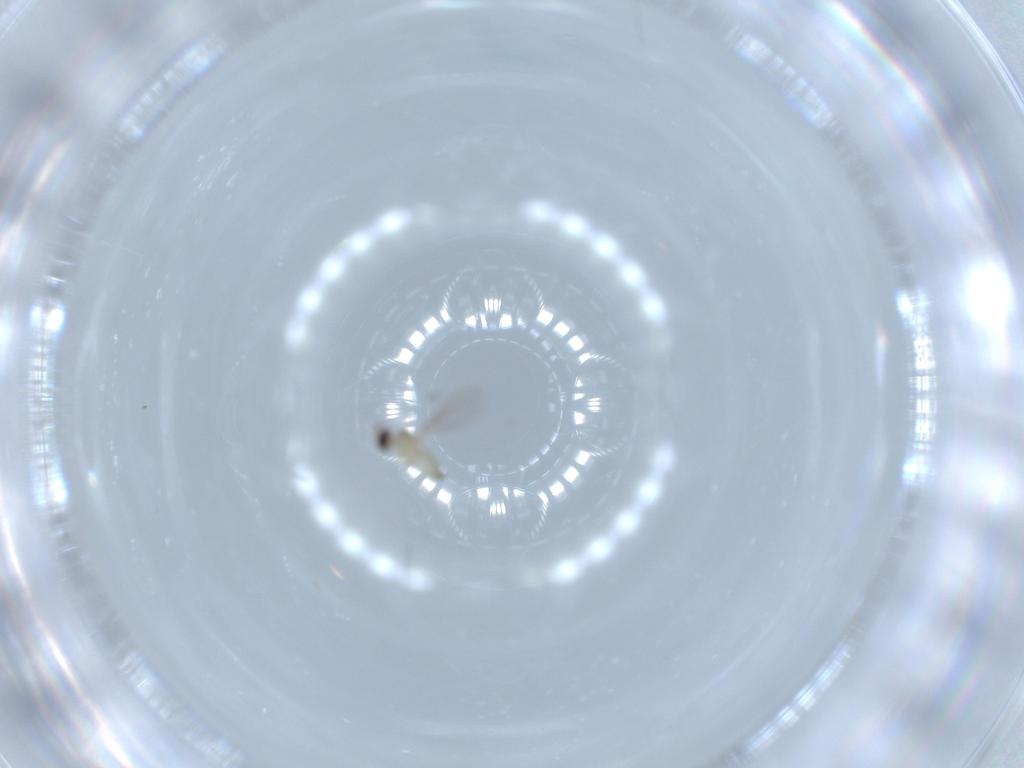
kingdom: Animalia
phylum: Arthropoda
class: Insecta
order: Diptera
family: Cecidomyiidae
